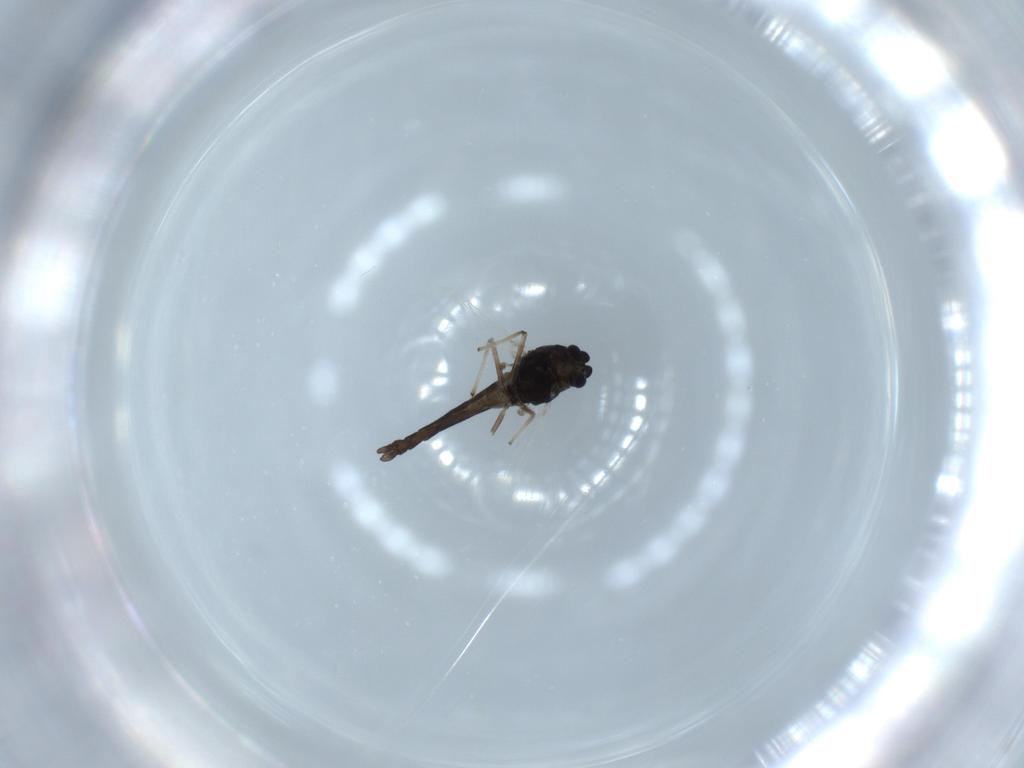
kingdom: Animalia
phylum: Arthropoda
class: Insecta
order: Diptera
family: Chironomidae
